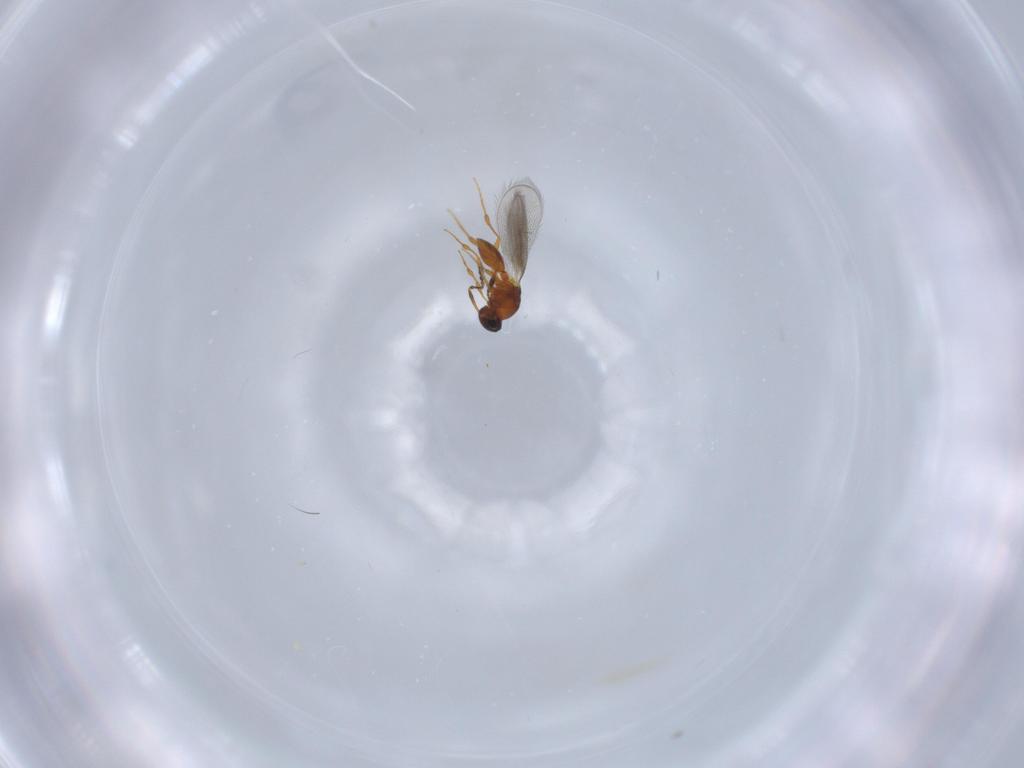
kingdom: Animalia
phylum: Arthropoda
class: Insecta
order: Hymenoptera
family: Platygastridae
